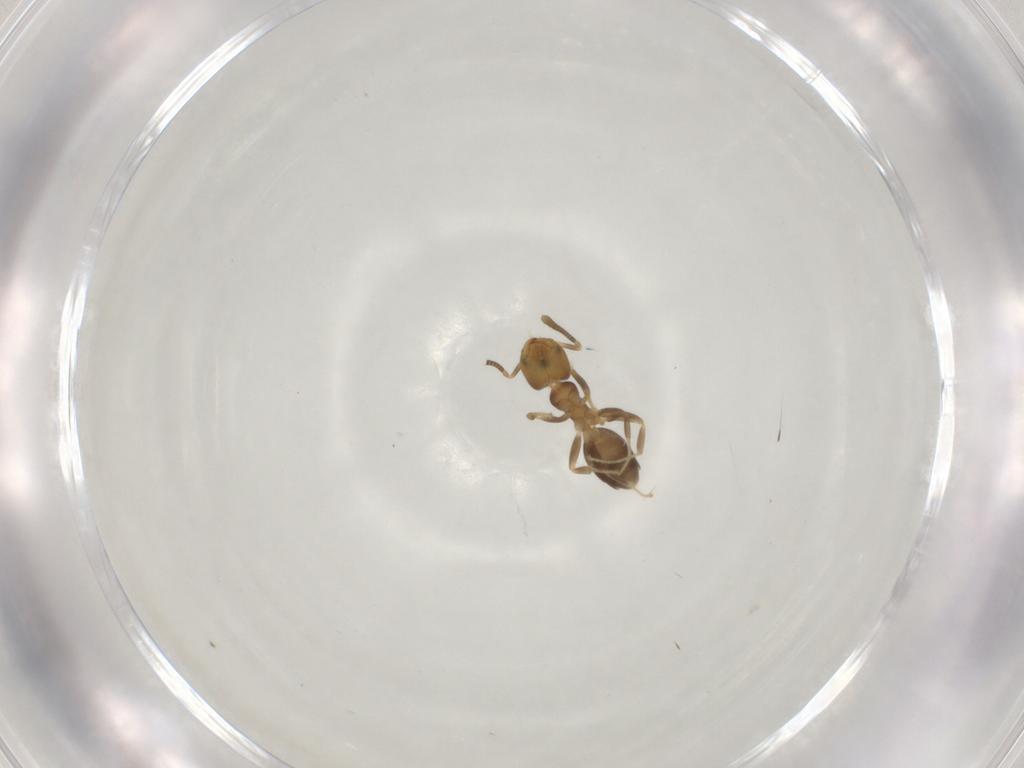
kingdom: Animalia
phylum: Arthropoda
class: Insecta
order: Hymenoptera
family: Formicidae
